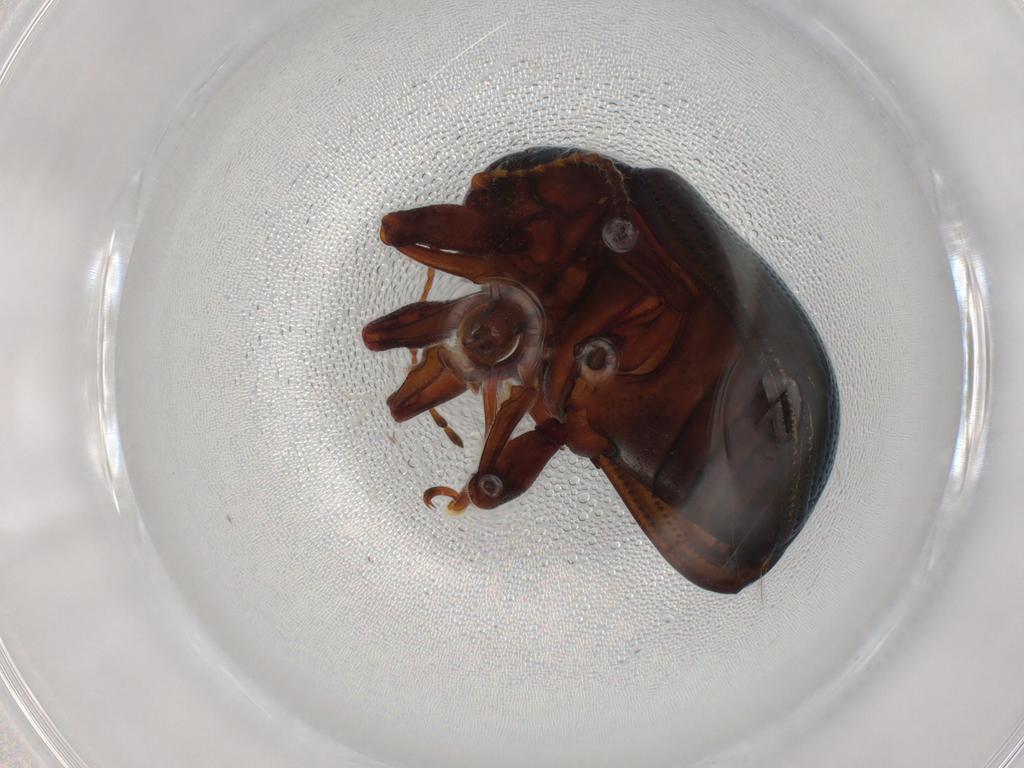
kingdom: Animalia
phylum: Arthropoda
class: Insecta
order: Coleoptera
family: Chrysomelidae
